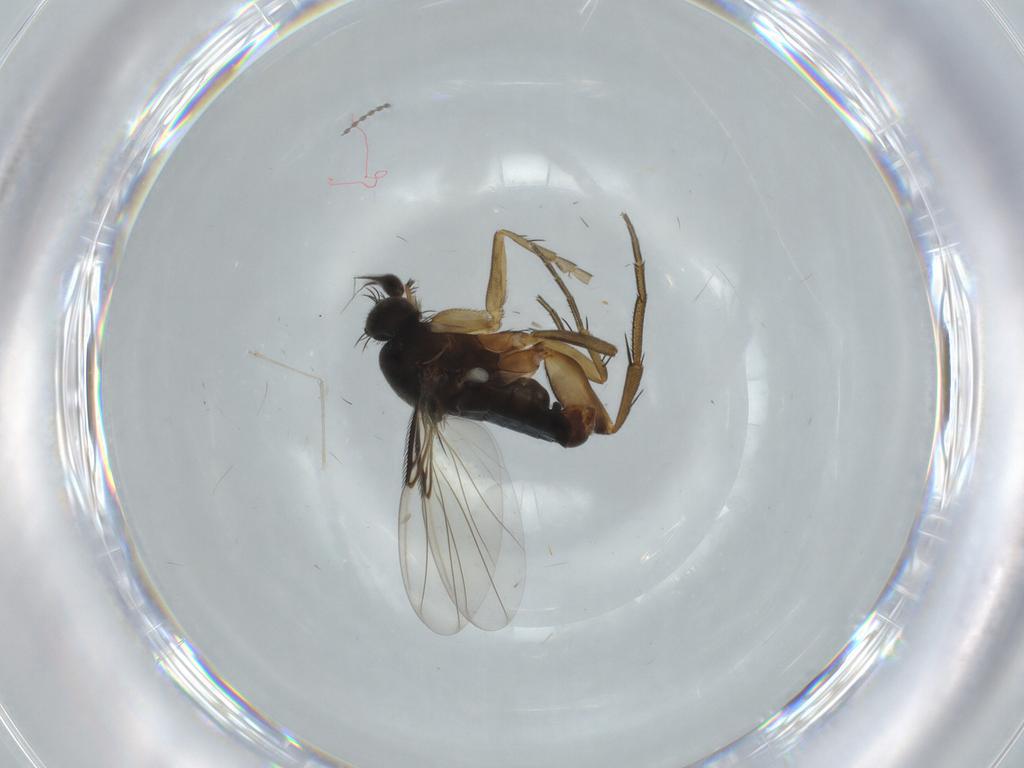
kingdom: Animalia
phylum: Arthropoda
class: Insecta
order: Diptera
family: Phoridae
